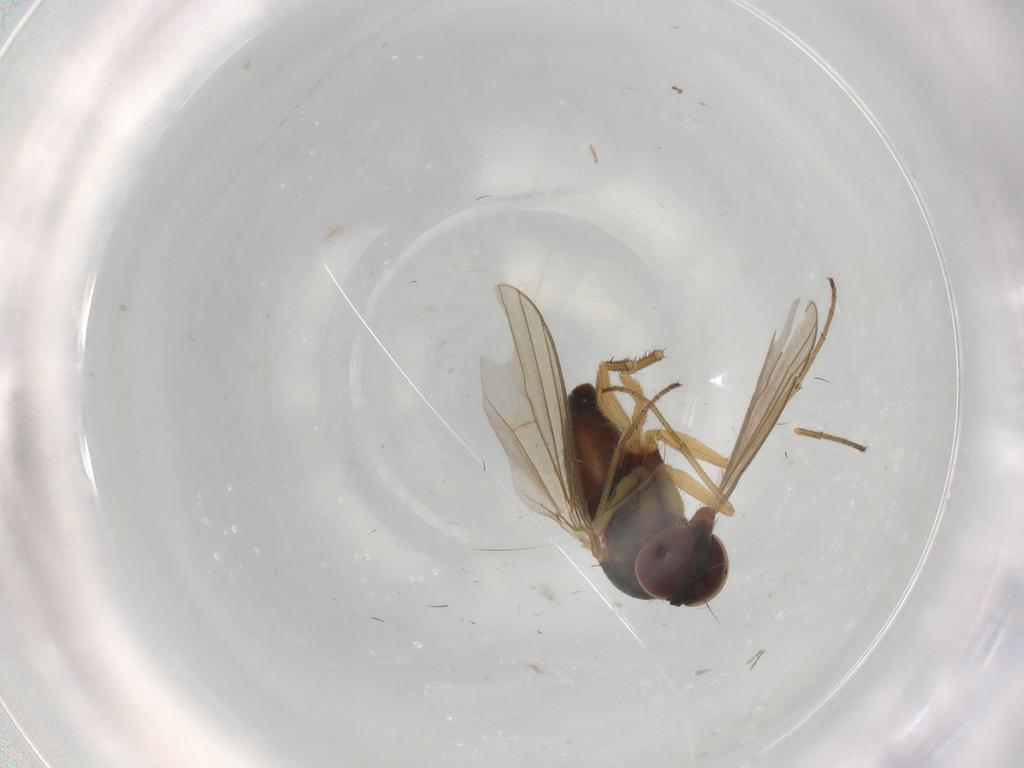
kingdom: Animalia
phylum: Arthropoda
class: Insecta
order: Diptera
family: Dolichopodidae
